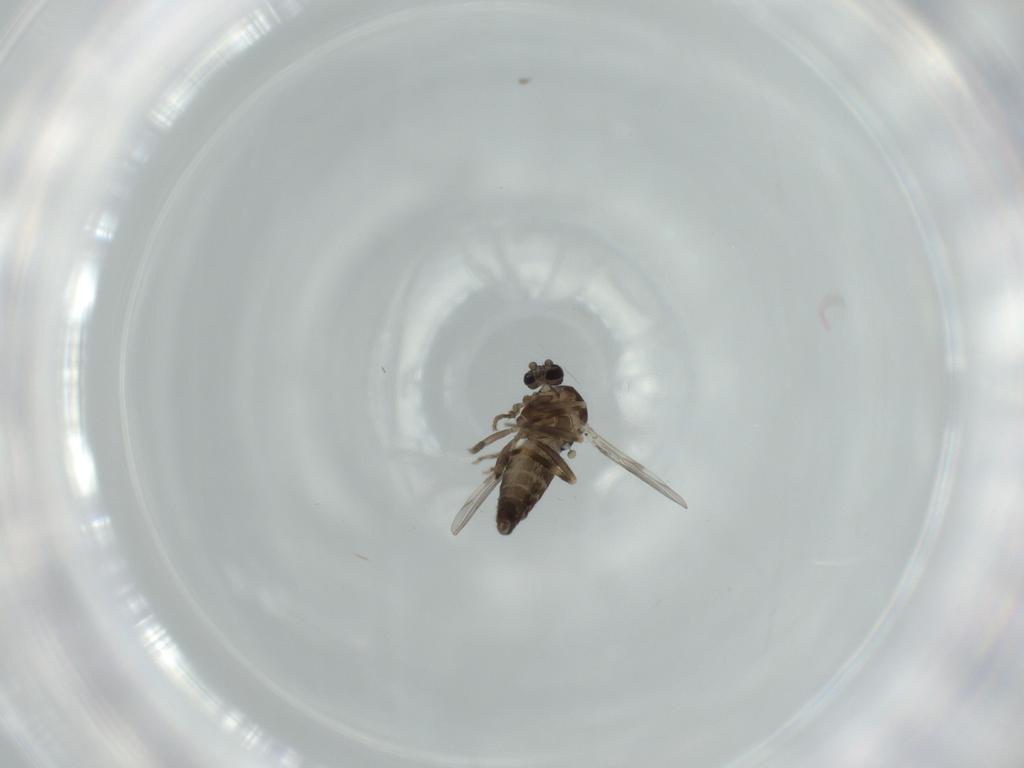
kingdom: Animalia
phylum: Arthropoda
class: Insecta
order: Diptera
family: Ceratopogonidae
